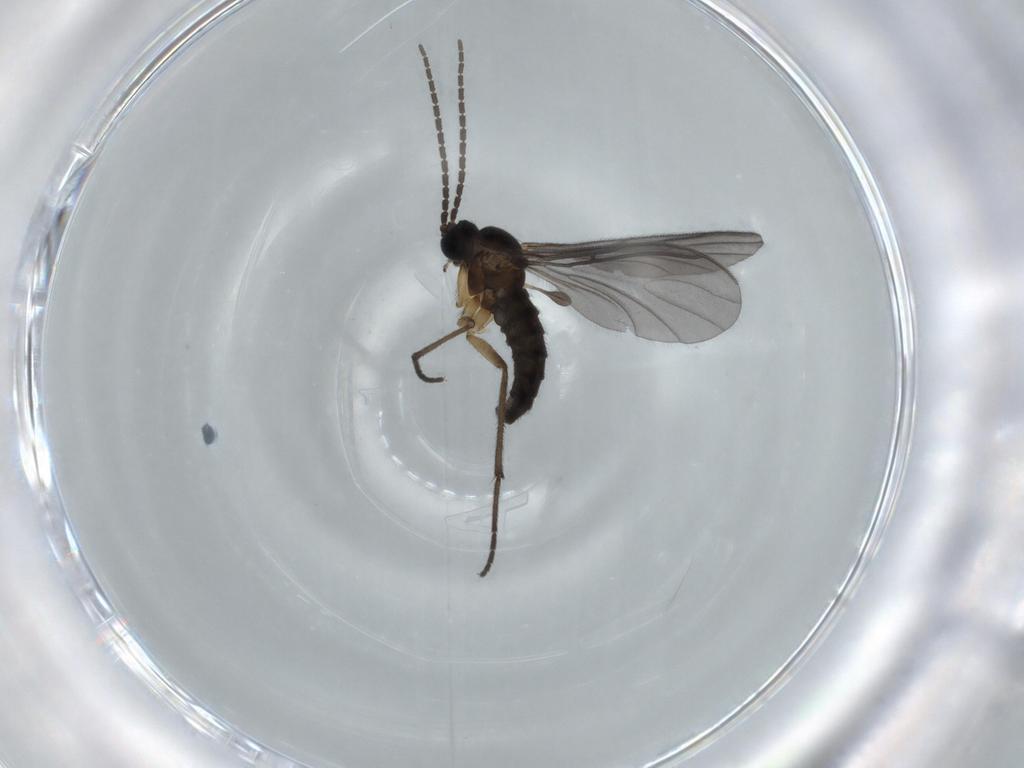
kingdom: Animalia
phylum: Arthropoda
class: Insecta
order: Diptera
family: Sciaridae
